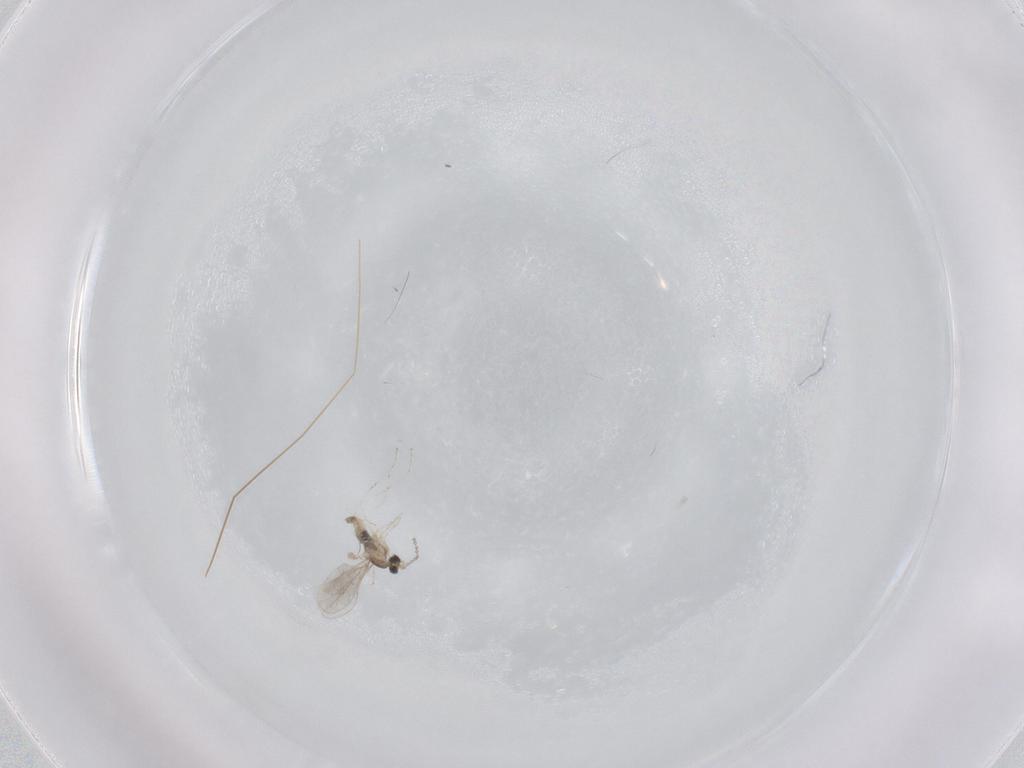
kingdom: Animalia
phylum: Arthropoda
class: Insecta
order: Diptera
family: Cecidomyiidae
